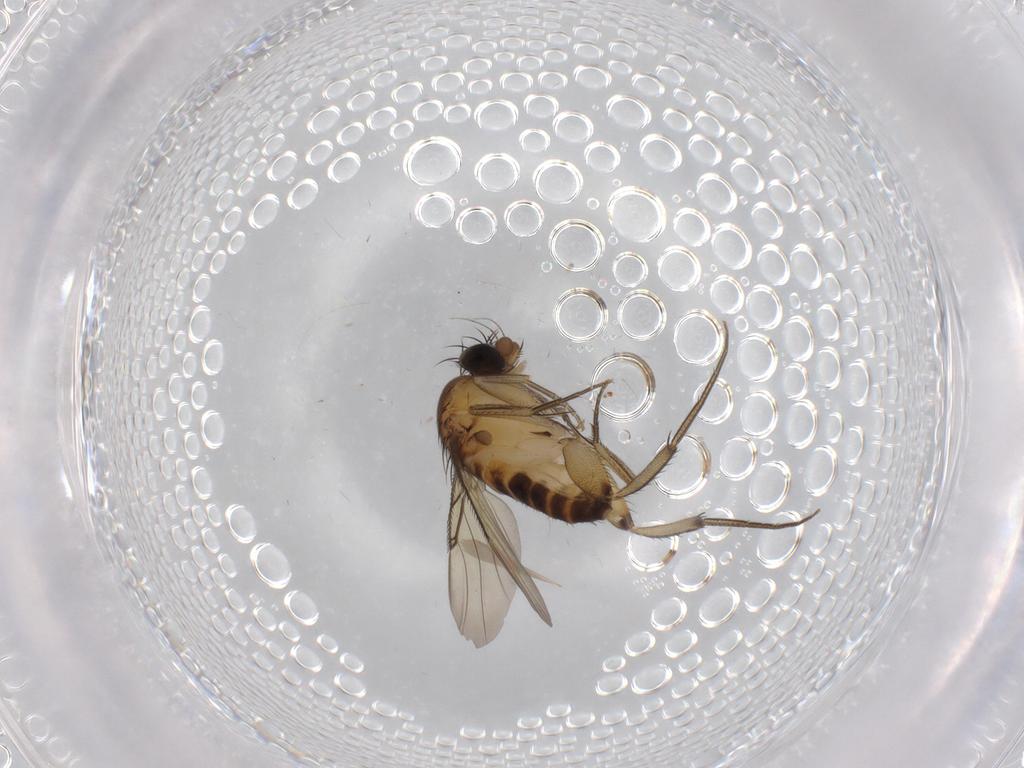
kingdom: Animalia
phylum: Arthropoda
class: Insecta
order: Diptera
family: Phoridae
